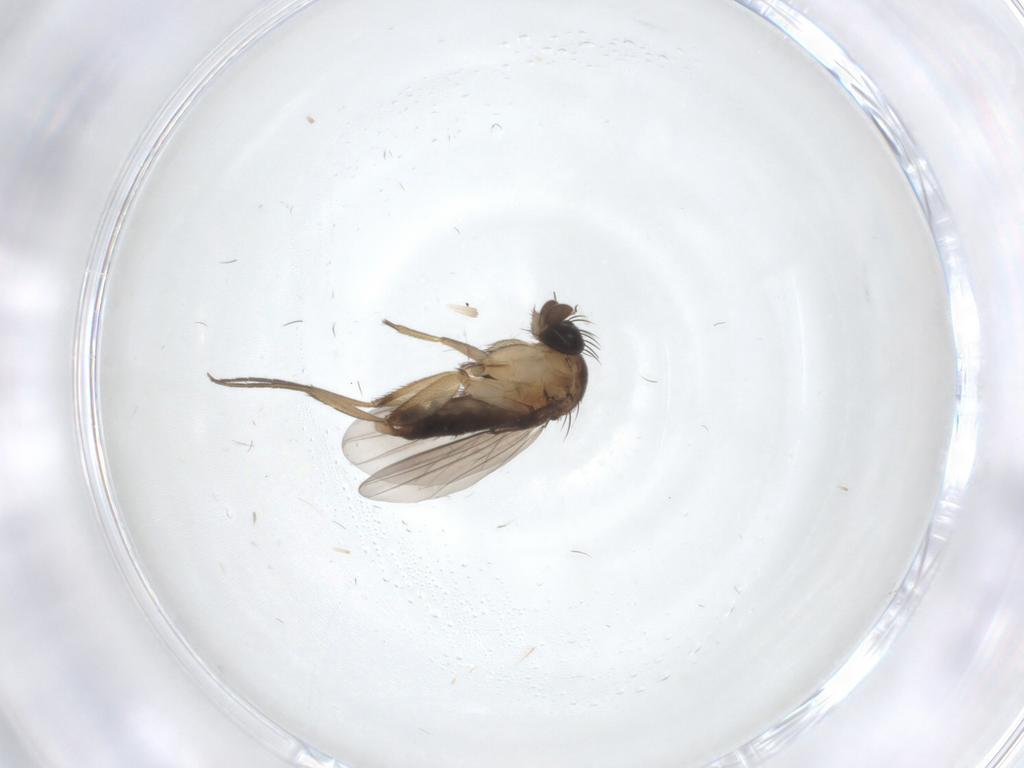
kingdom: Animalia
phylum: Arthropoda
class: Insecta
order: Diptera
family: Phoridae
